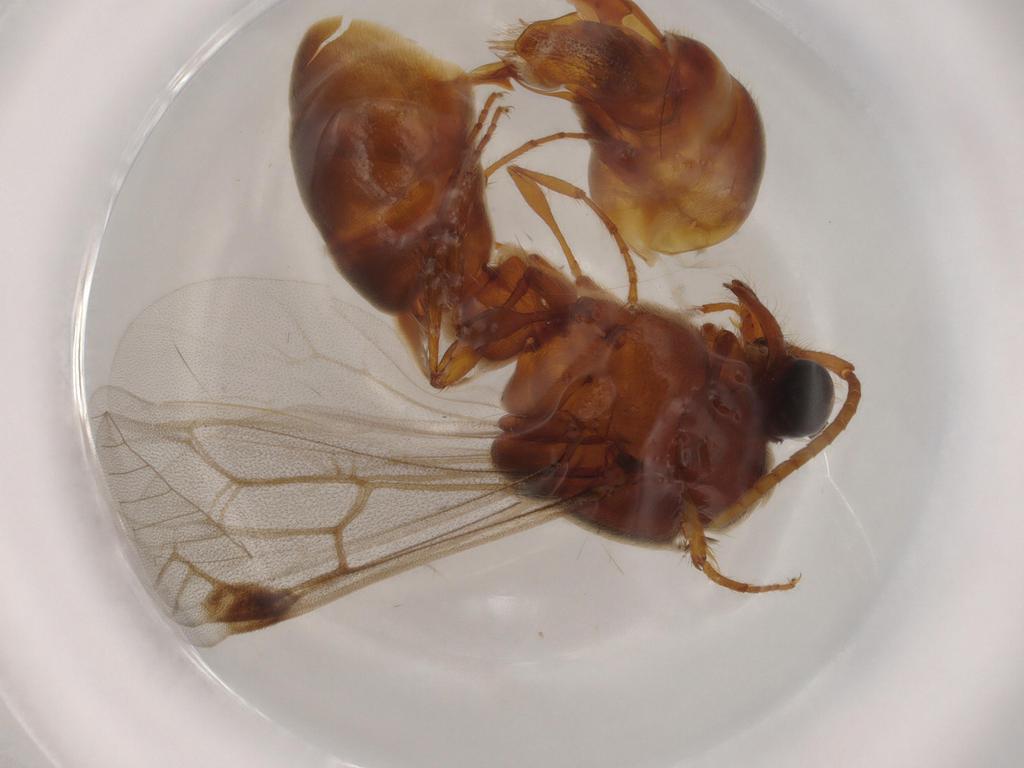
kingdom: Animalia
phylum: Arthropoda
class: Insecta
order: Hymenoptera
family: Formicidae
